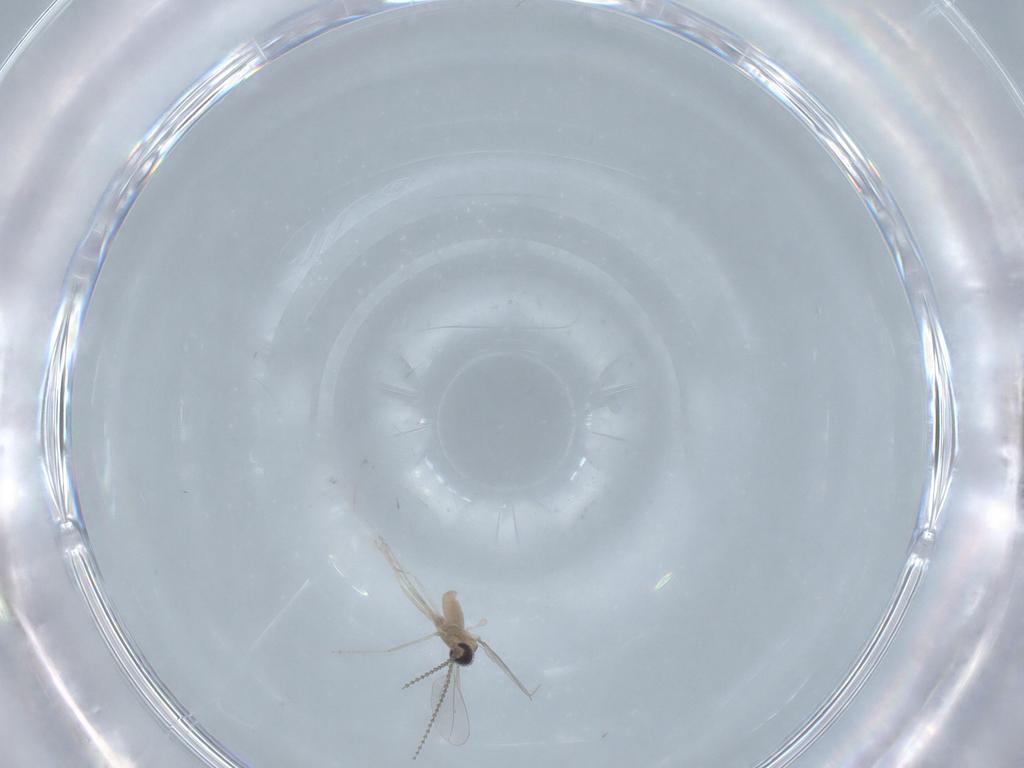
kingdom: Animalia
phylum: Arthropoda
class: Insecta
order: Diptera
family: Cecidomyiidae
